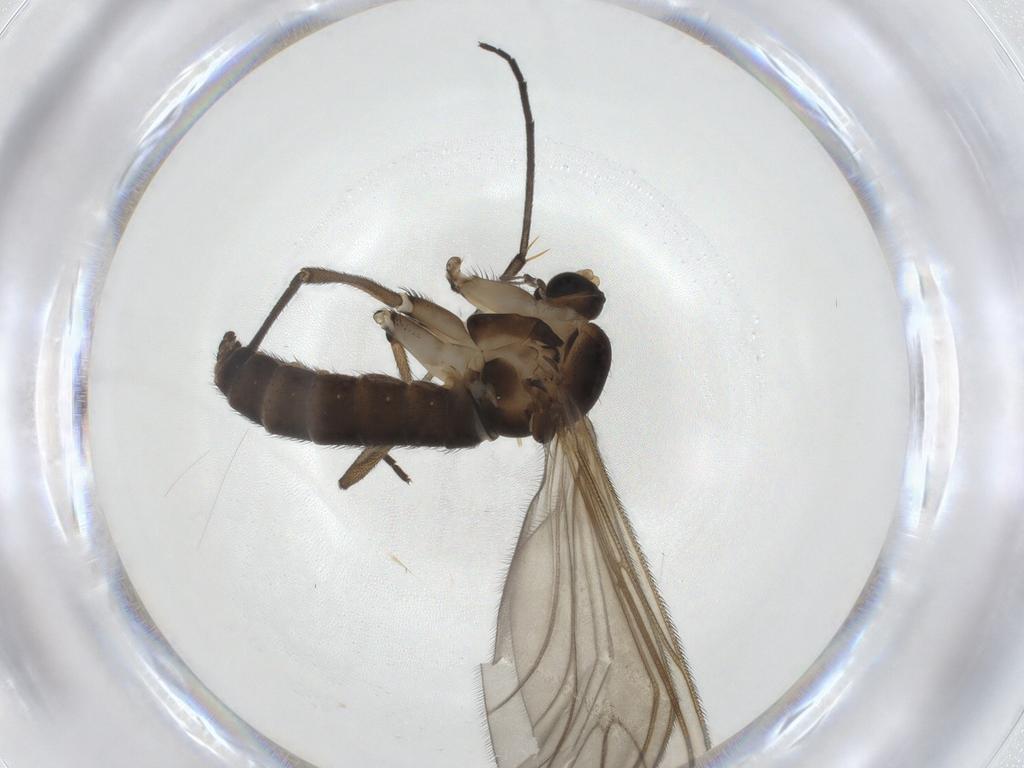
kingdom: Animalia
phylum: Arthropoda
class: Insecta
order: Diptera
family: Sciaridae
